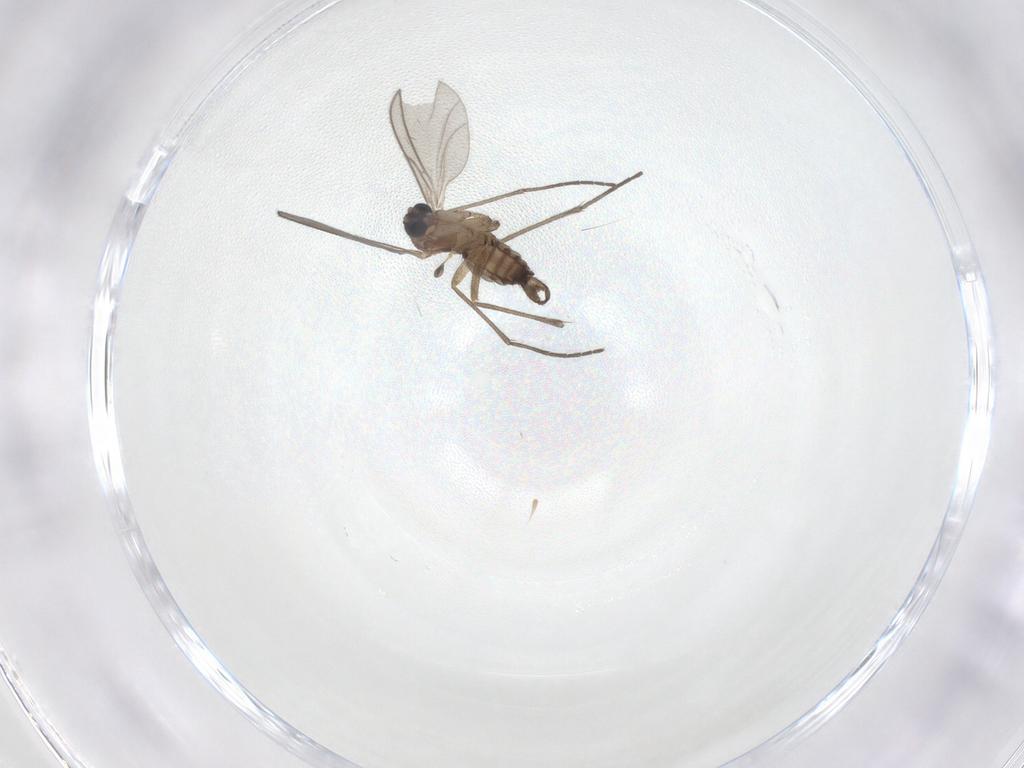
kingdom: Animalia
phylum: Arthropoda
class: Insecta
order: Diptera
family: Sciaridae
